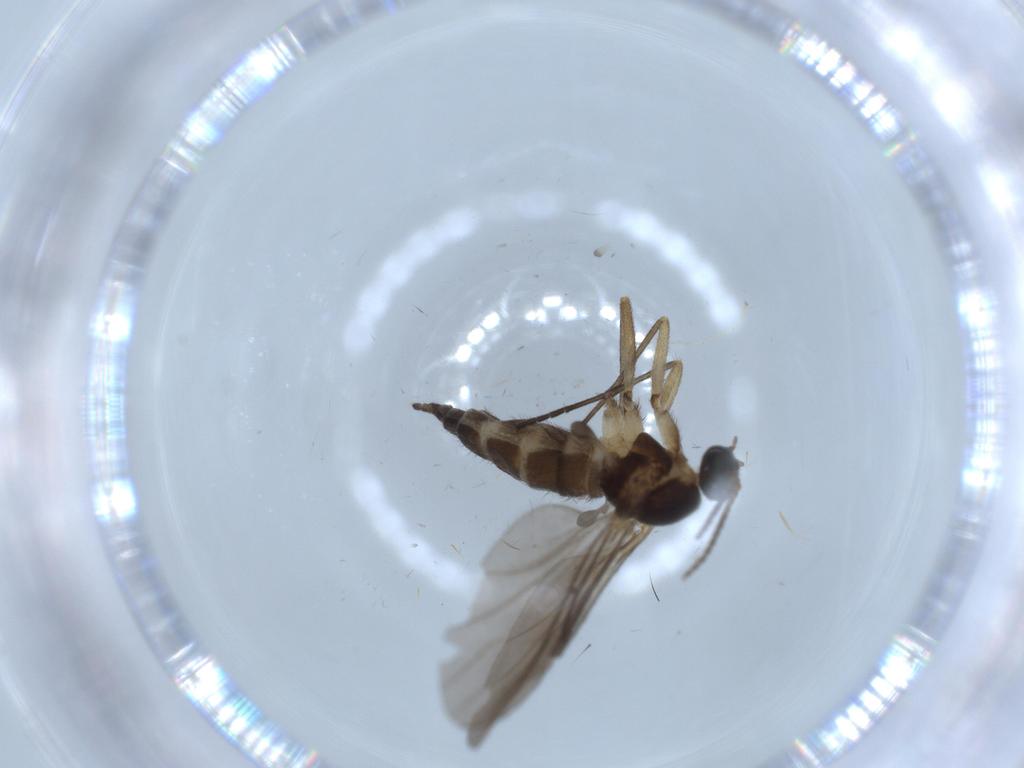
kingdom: Animalia
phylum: Arthropoda
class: Insecta
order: Diptera
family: Sciaridae
